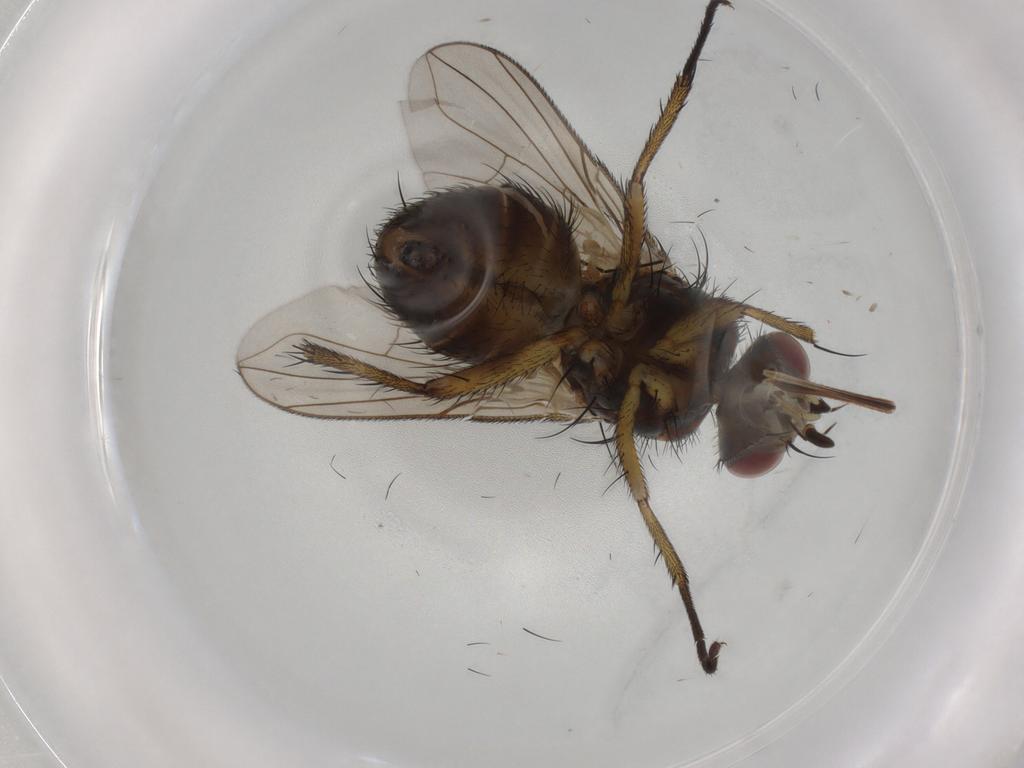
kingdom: Animalia
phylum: Arthropoda
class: Insecta
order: Diptera
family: Tachinidae
